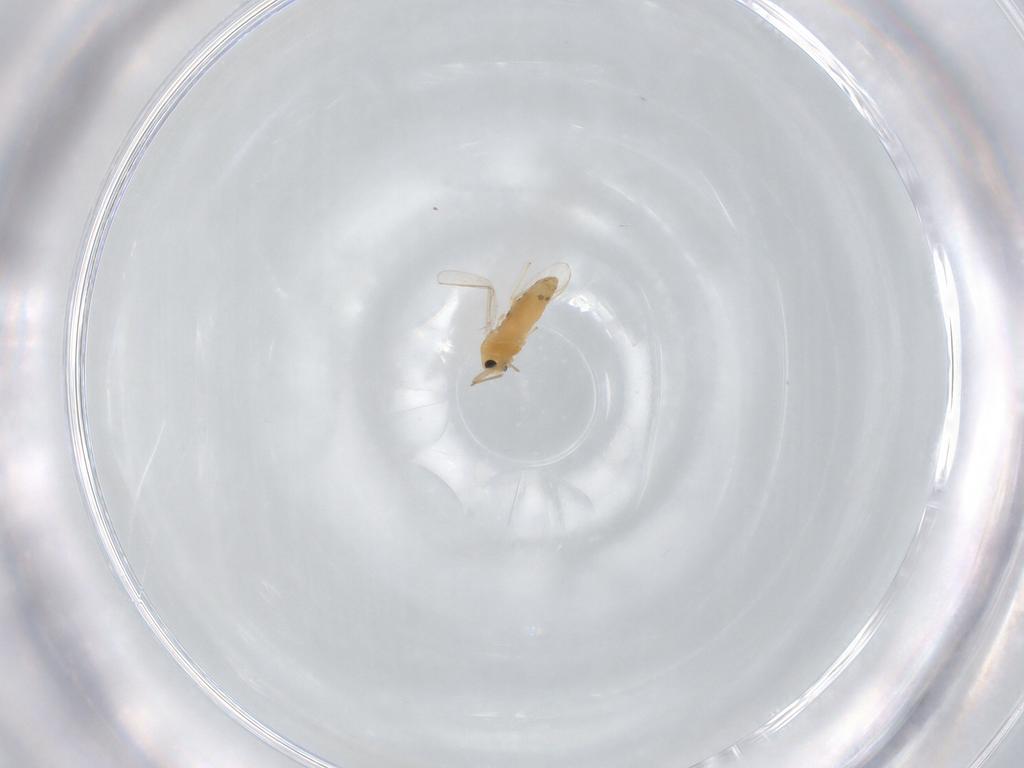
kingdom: Animalia
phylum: Arthropoda
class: Insecta
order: Diptera
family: Chironomidae
